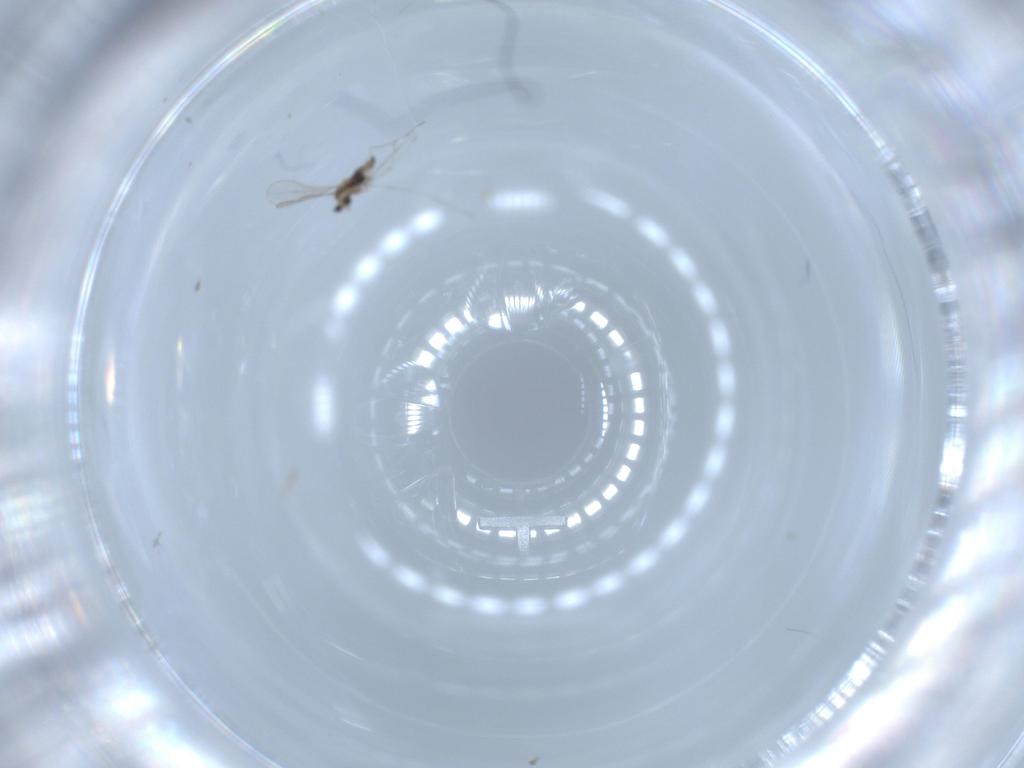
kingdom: Animalia
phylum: Arthropoda
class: Insecta
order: Diptera
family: Cecidomyiidae
